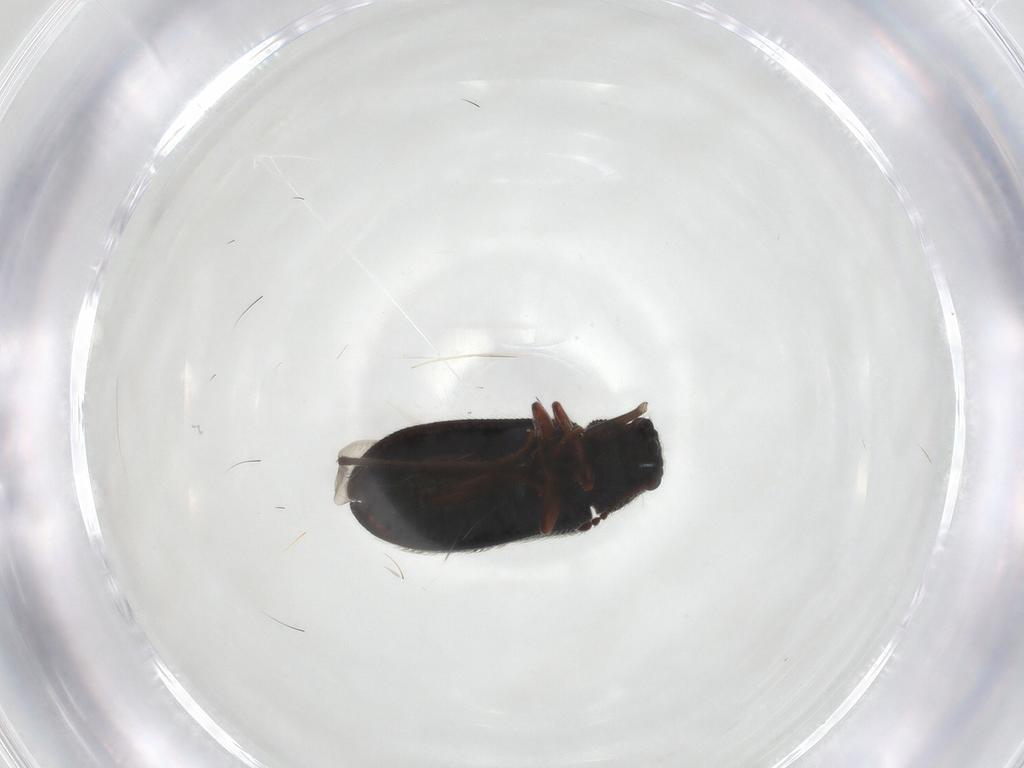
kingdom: Animalia
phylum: Arthropoda
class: Insecta
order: Coleoptera
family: Melyridae
